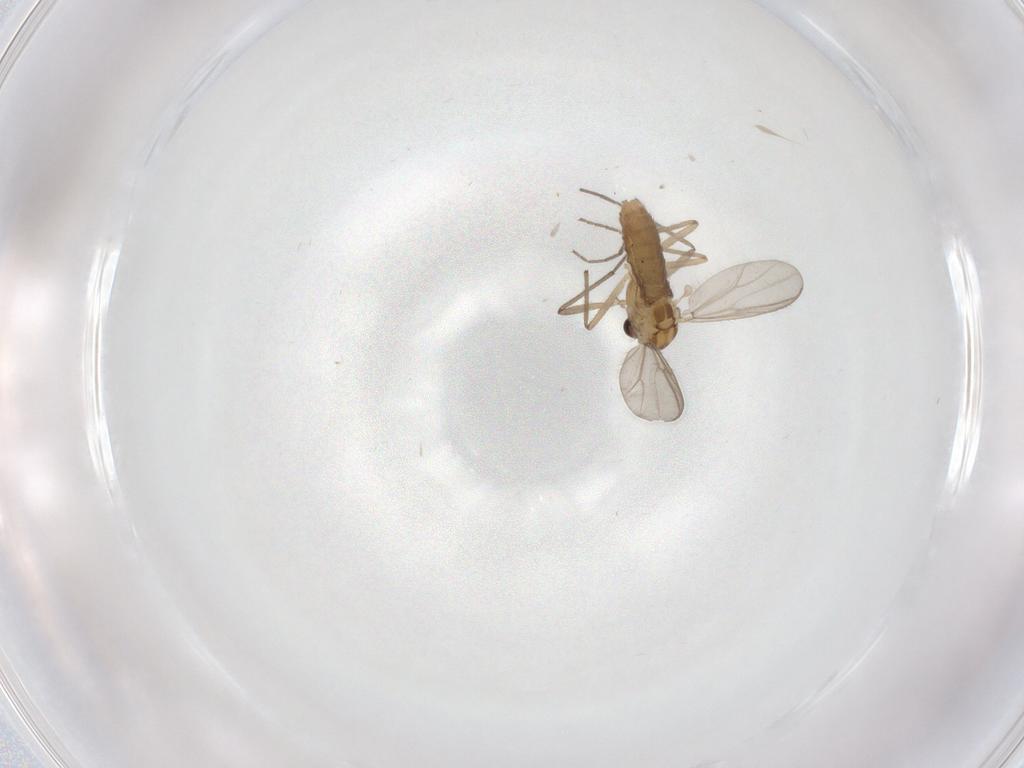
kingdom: Animalia
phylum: Arthropoda
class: Insecta
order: Diptera
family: Chironomidae
